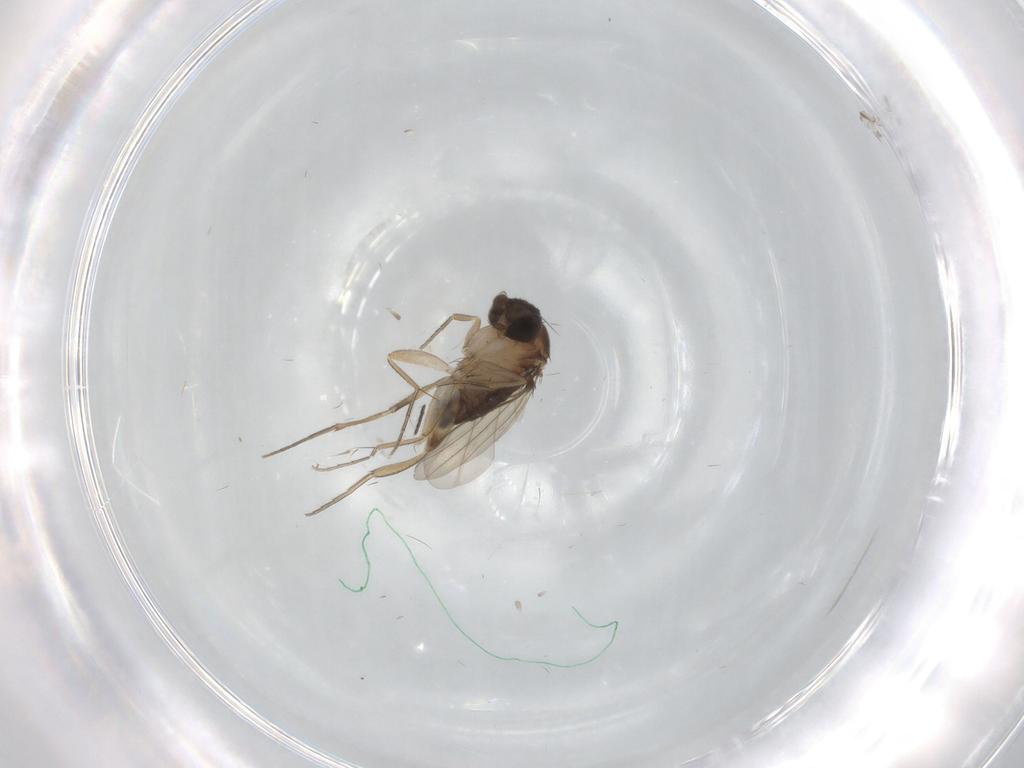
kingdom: Animalia
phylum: Arthropoda
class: Insecta
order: Diptera
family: Cecidomyiidae
